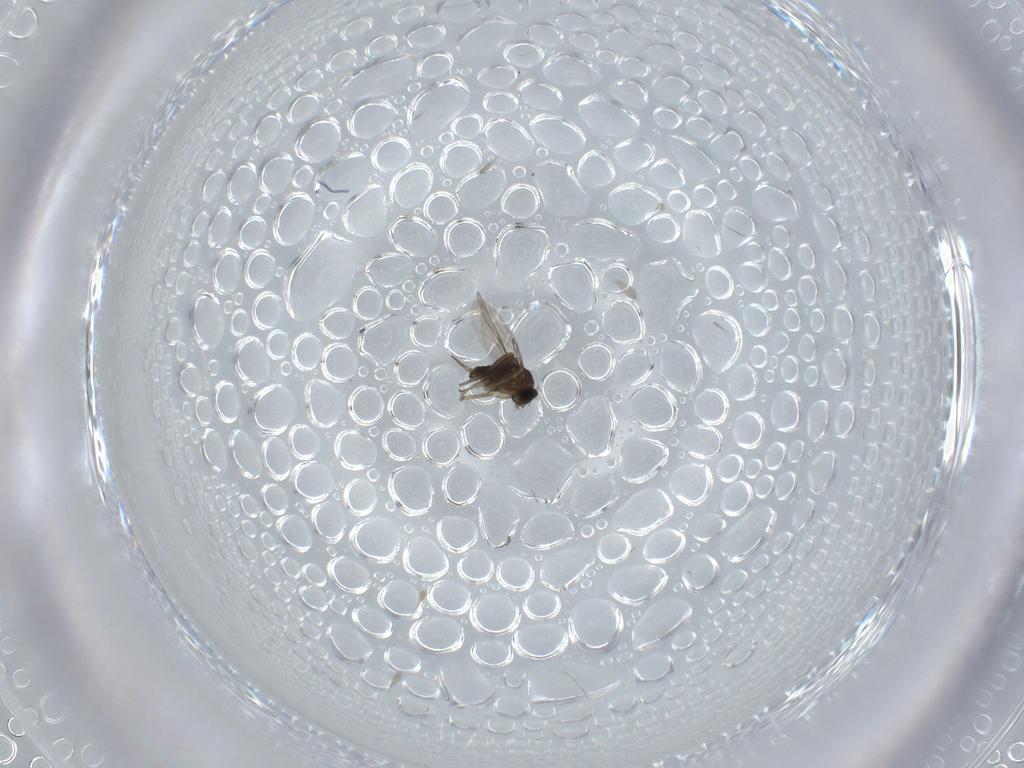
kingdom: Animalia
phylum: Arthropoda
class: Insecta
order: Diptera
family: Phoridae
